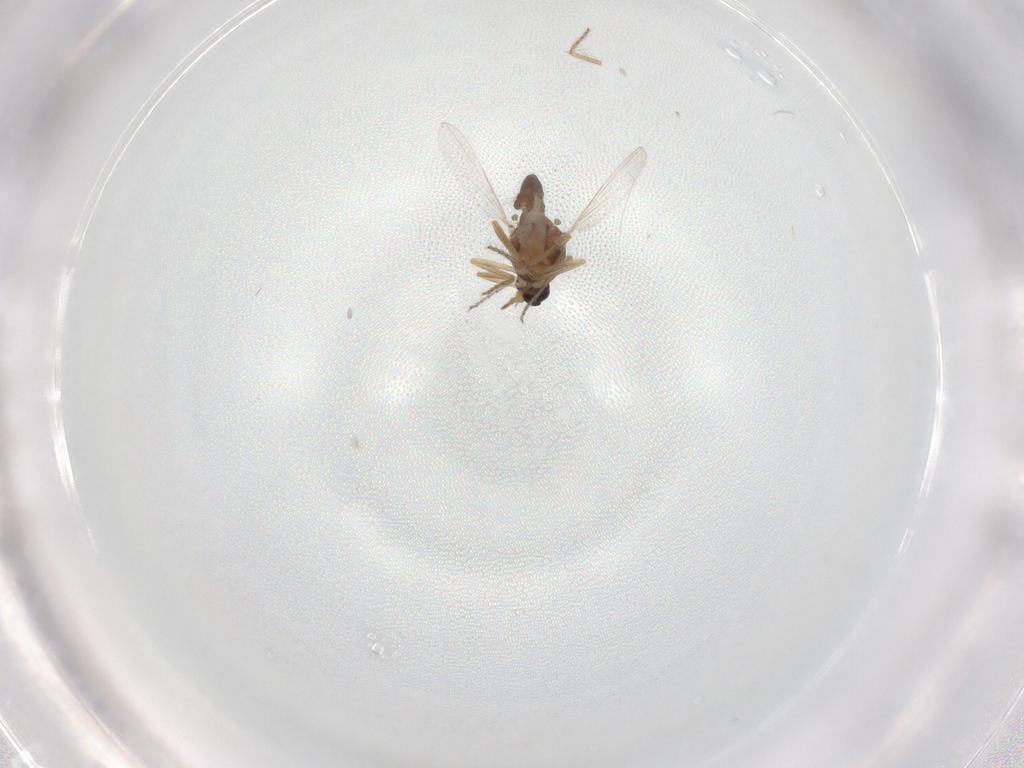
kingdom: Animalia
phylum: Arthropoda
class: Insecta
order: Diptera
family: Ceratopogonidae
